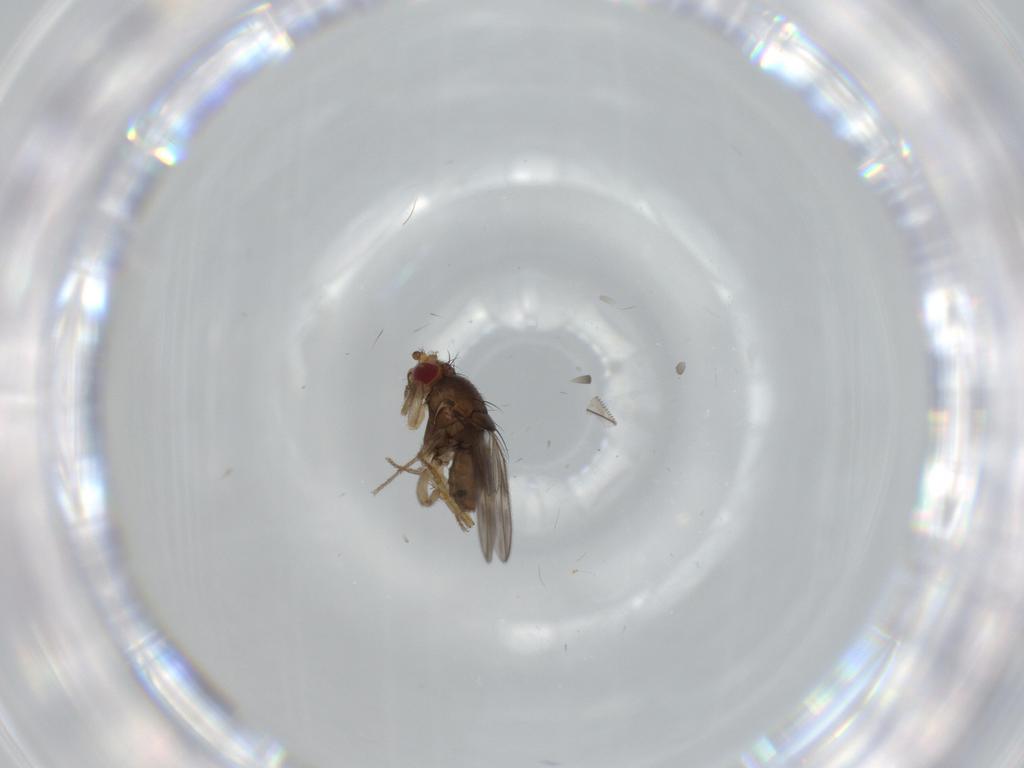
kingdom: Animalia
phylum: Arthropoda
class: Insecta
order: Diptera
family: Sphaeroceridae
